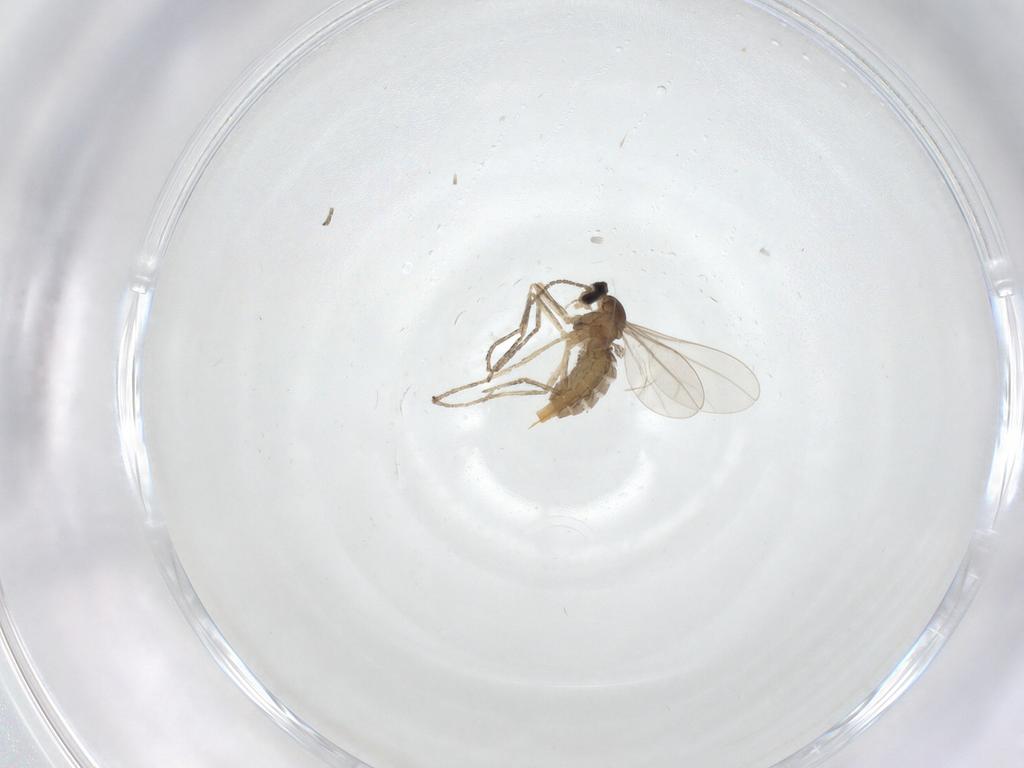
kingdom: Animalia
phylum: Arthropoda
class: Insecta
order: Diptera
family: Cecidomyiidae
